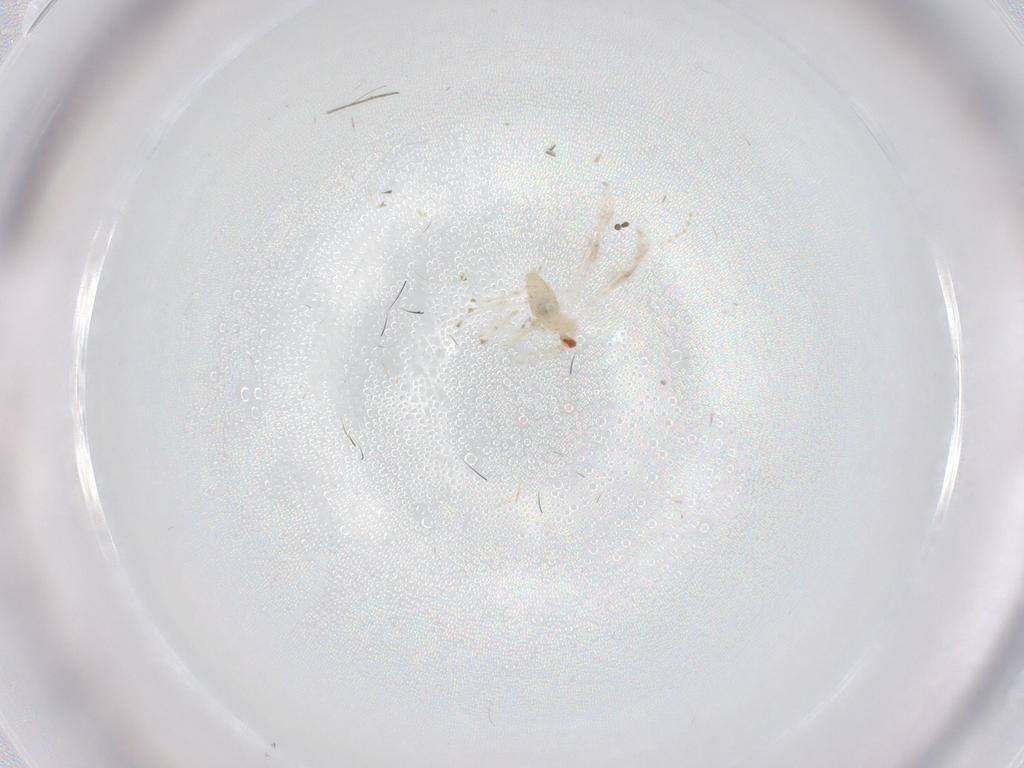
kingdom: Animalia
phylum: Arthropoda
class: Insecta
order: Diptera
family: Cecidomyiidae
